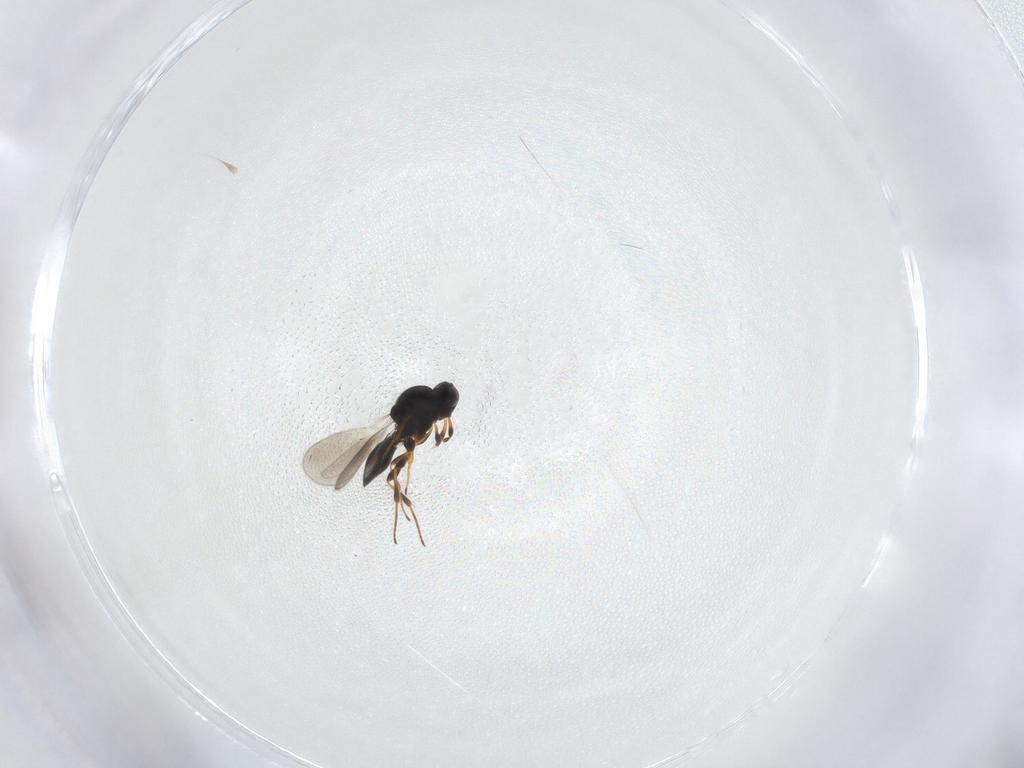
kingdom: Animalia
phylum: Arthropoda
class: Insecta
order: Hymenoptera
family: Platygastridae
